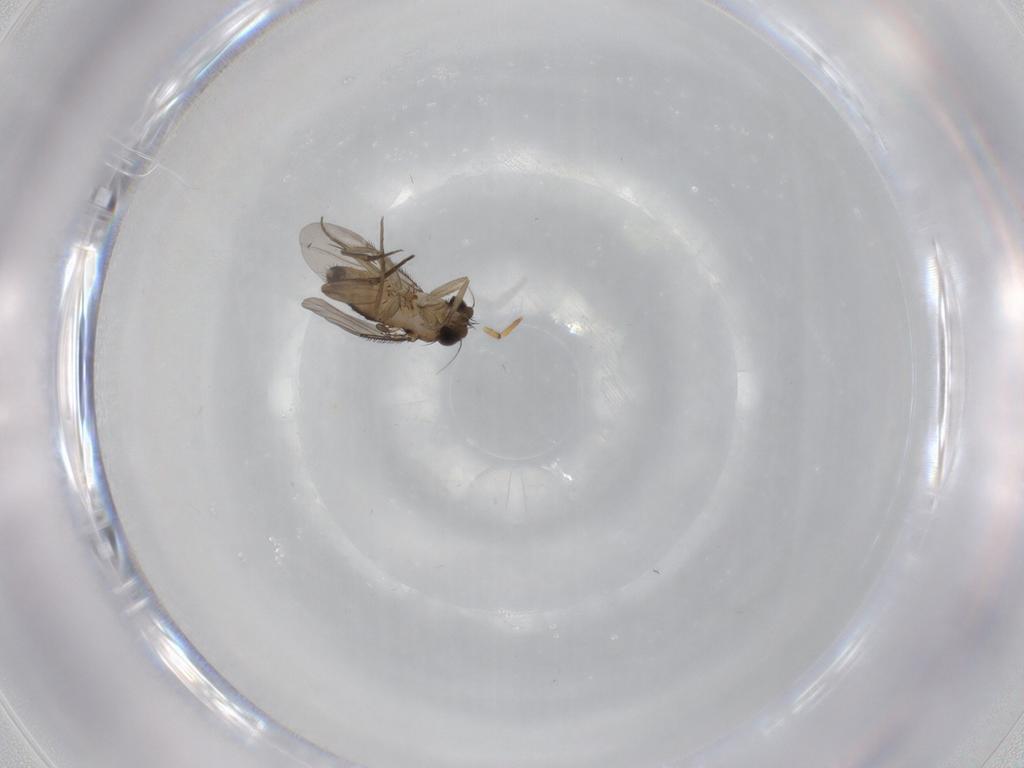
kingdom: Animalia
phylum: Arthropoda
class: Insecta
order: Diptera
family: Phoridae
